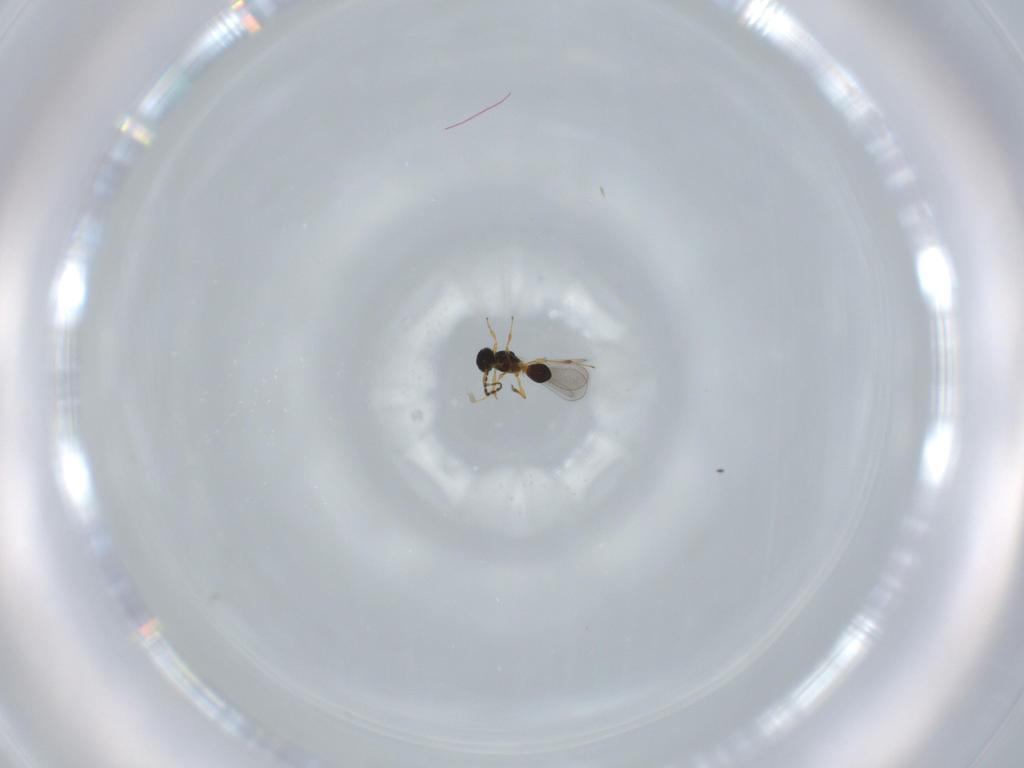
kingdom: Animalia
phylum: Arthropoda
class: Insecta
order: Hymenoptera
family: Platygastridae
